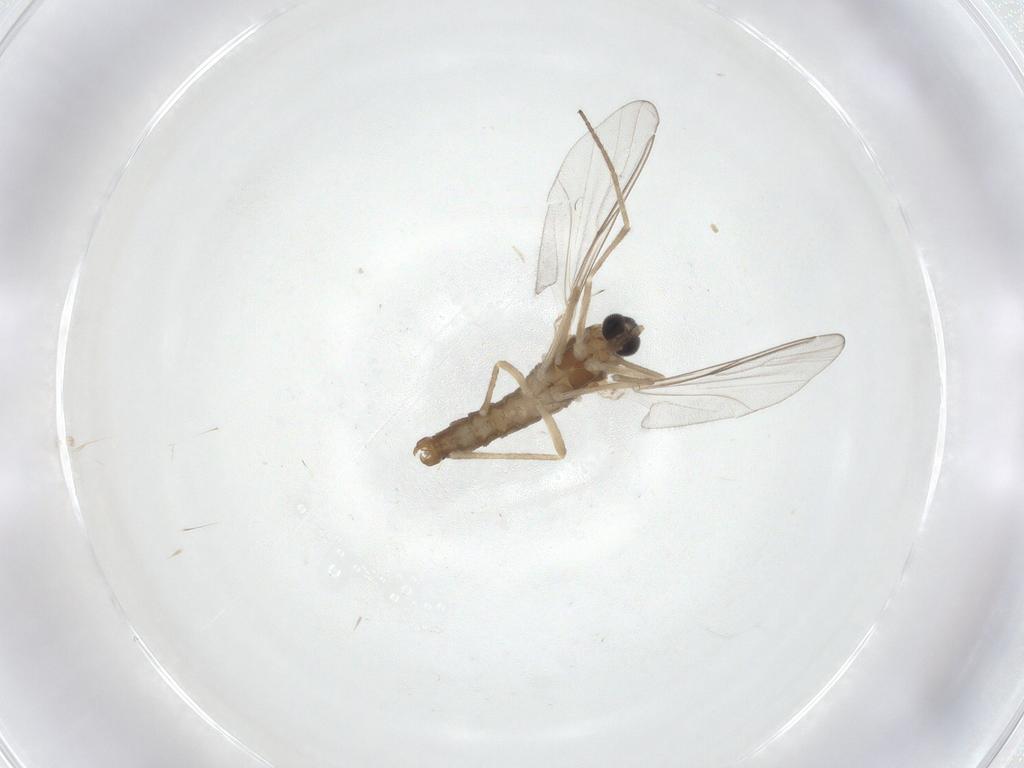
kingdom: Animalia
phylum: Arthropoda
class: Insecta
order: Diptera
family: Cecidomyiidae
